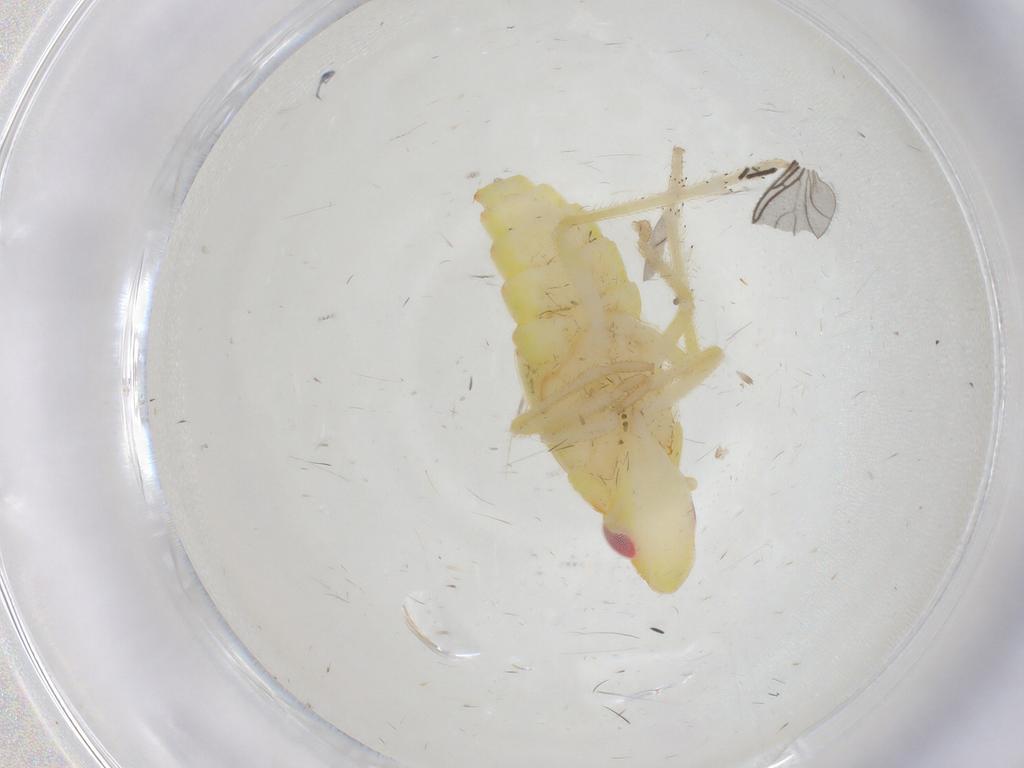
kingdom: Animalia
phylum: Arthropoda
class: Insecta
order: Hemiptera
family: Tropiduchidae
